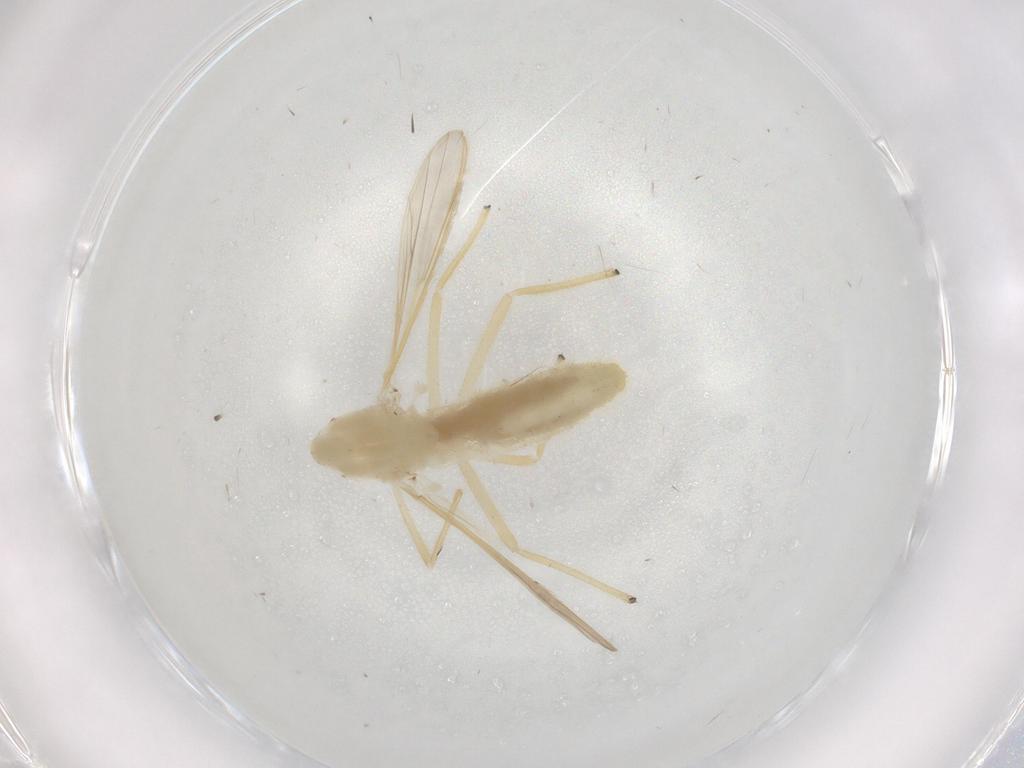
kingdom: Animalia
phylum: Arthropoda
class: Insecta
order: Diptera
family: Chironomidae
